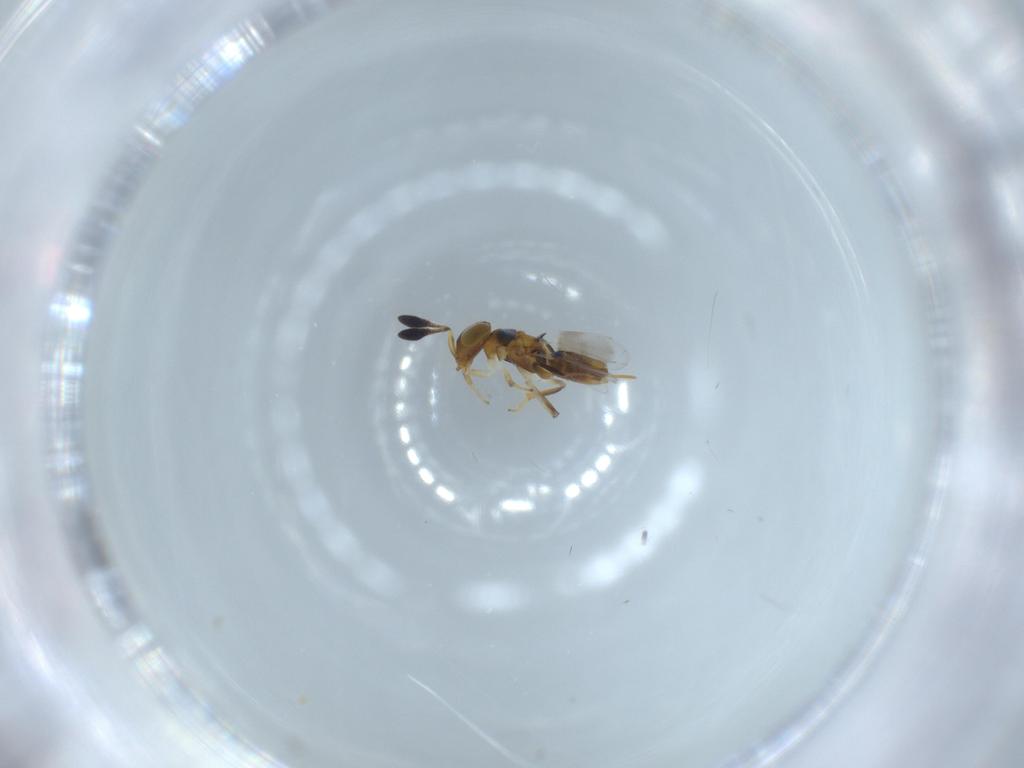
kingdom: Animalia
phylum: Arthropoda
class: Insecta
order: Hymenoptera
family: Encyrtidae
